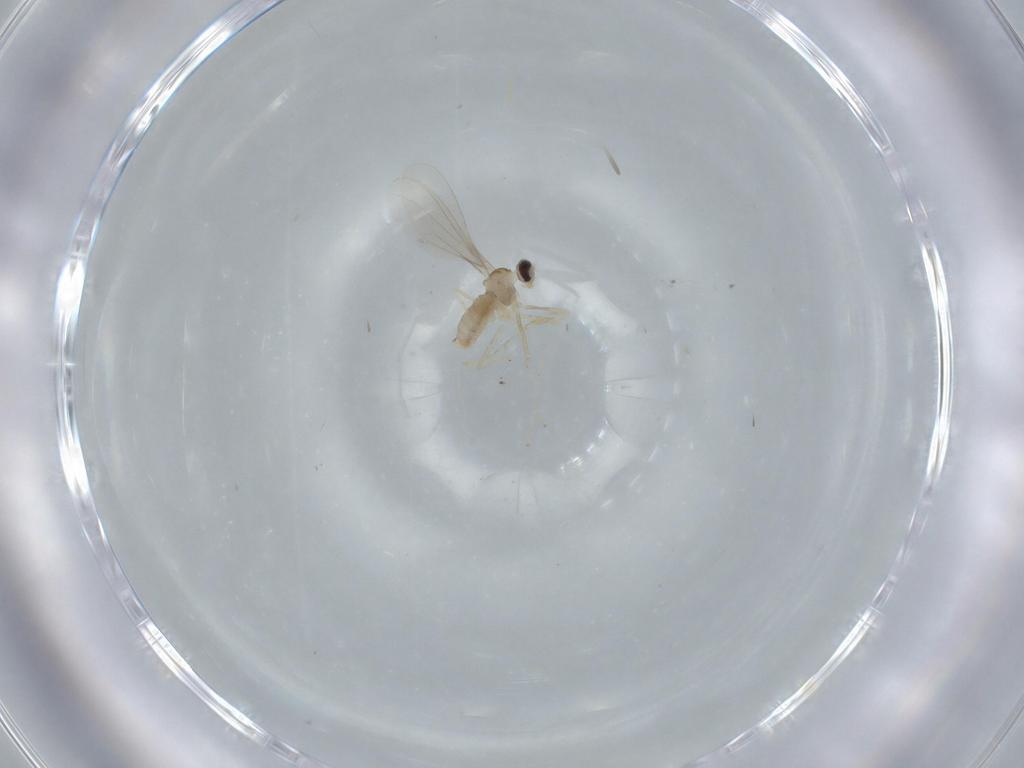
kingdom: Animalia
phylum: Arthropoda
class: Insecta
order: Diptera
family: Cecidomyiidae
